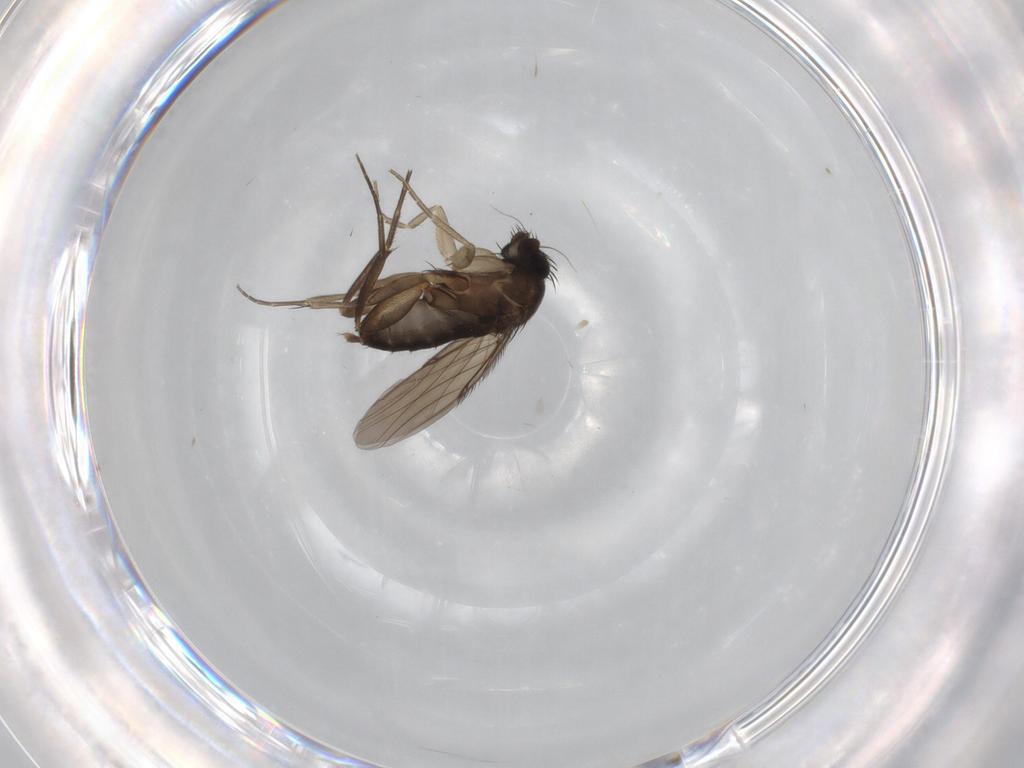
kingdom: Animalia
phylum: Arthropoda
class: Insecta
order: Diptera
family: Phoridae
